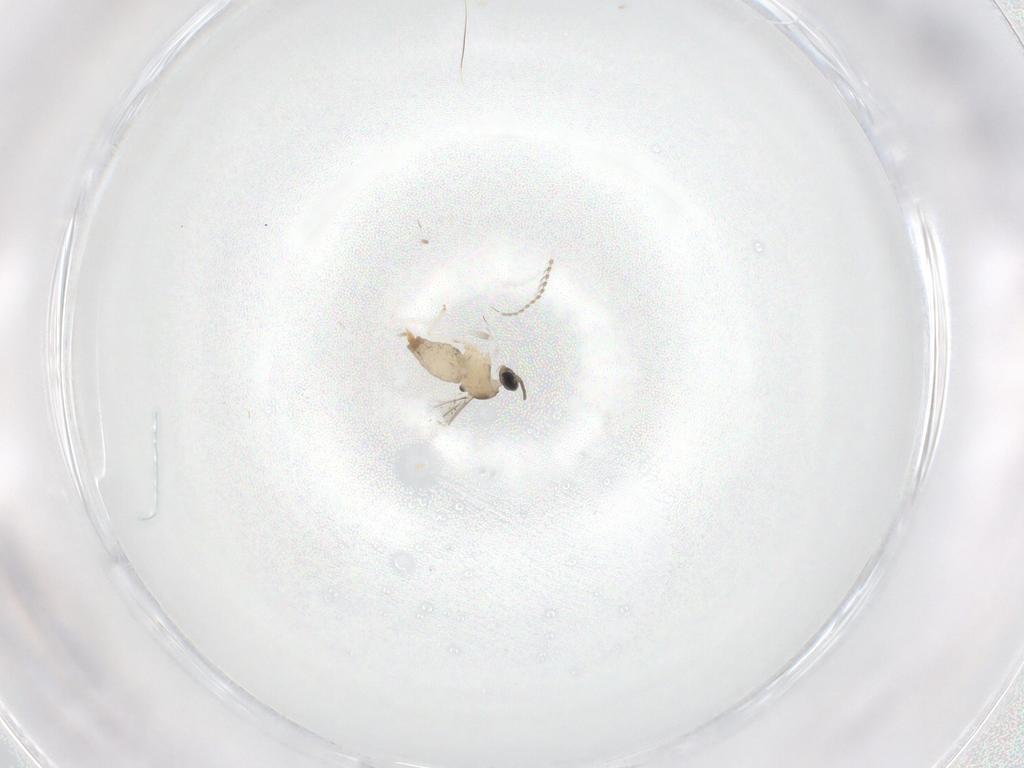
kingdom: Animalia
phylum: Arthropoda
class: Insecta
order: Diptera
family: Cecidomyiidae
